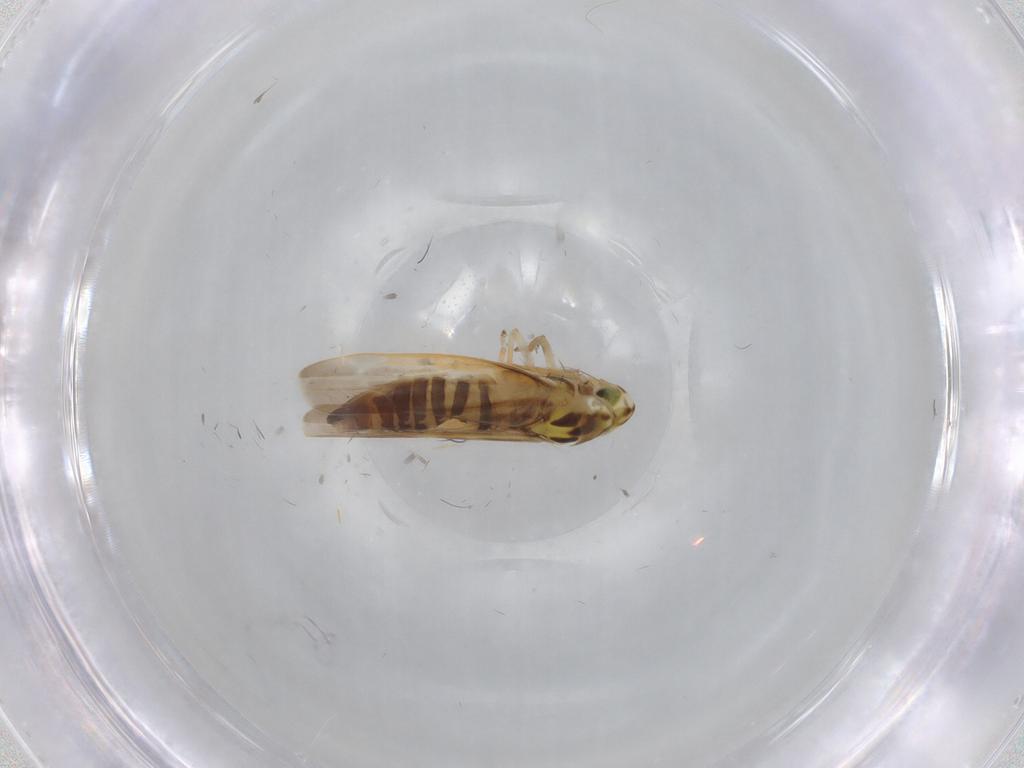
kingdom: Animalia
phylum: Arthropoda
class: Insecta
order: Hemiptera
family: Cicadellidae
